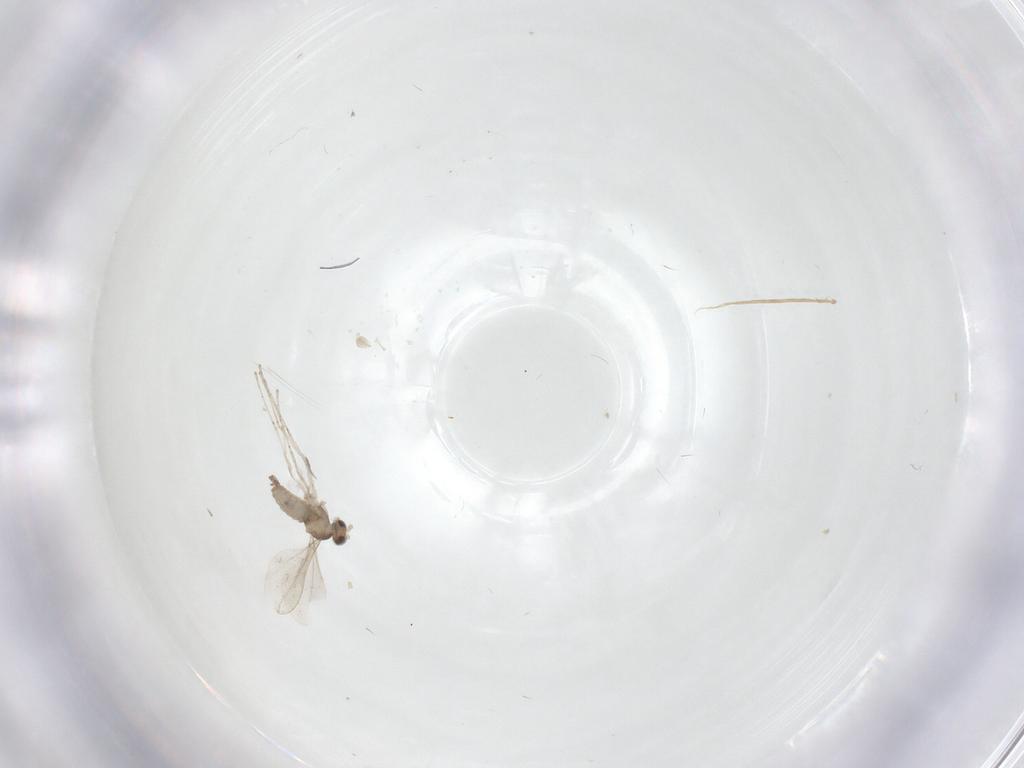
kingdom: Animalia
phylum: Arthropoda
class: Insecta
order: Diptera
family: Cecidomyiidae
